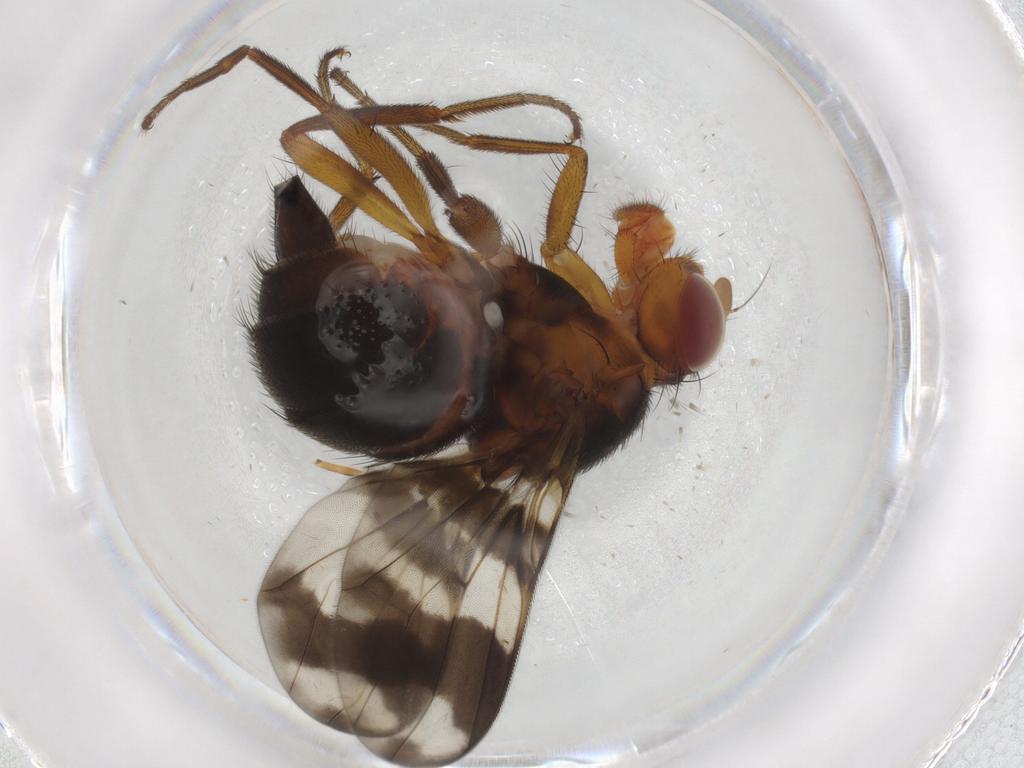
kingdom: Animalia
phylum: Arthropoda
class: Insecta
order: Diptera
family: Richardiidae
